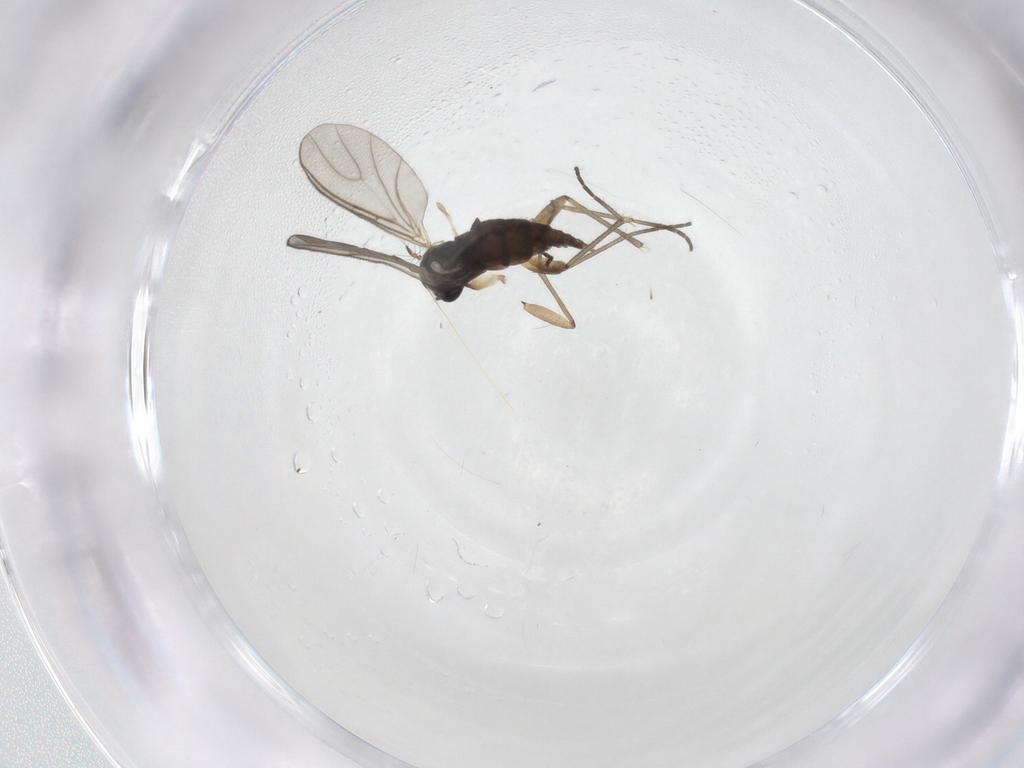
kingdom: Animalia
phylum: Arthropoda
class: Insecta
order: Diptera
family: Sciaridae
